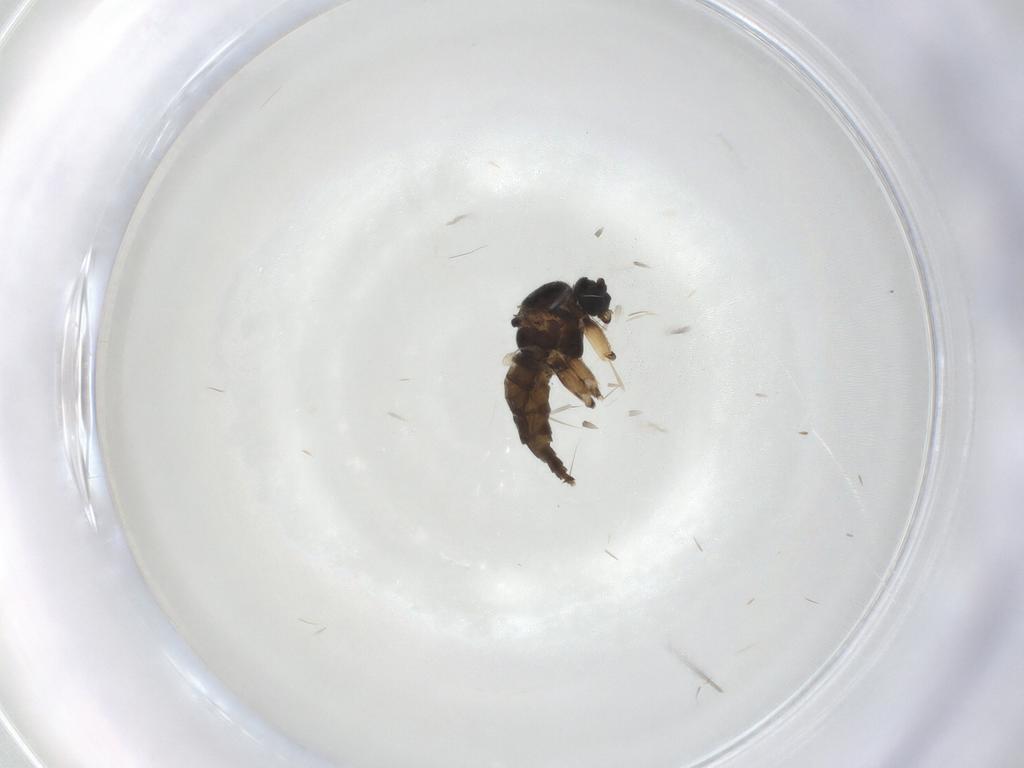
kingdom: Animalia
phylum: Arthropoda
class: Insecta
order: Diptera
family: Sciaridae
